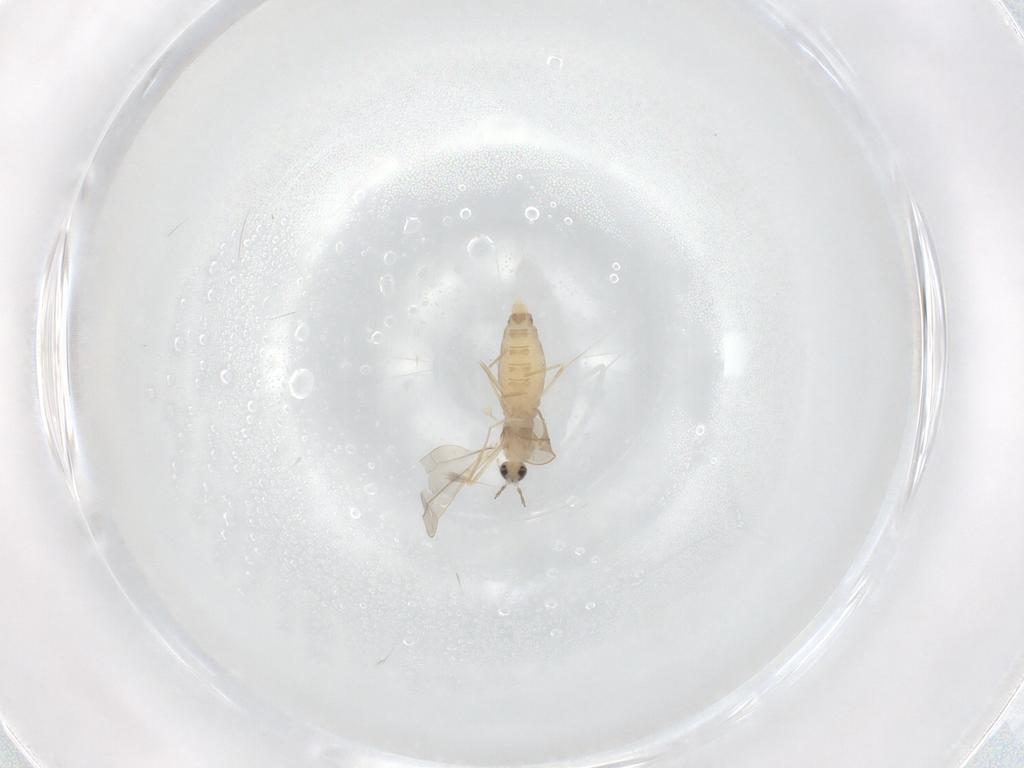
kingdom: Animalia
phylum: Arthropoda
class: Insecta
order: Diptera
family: Cecidomyiidae
